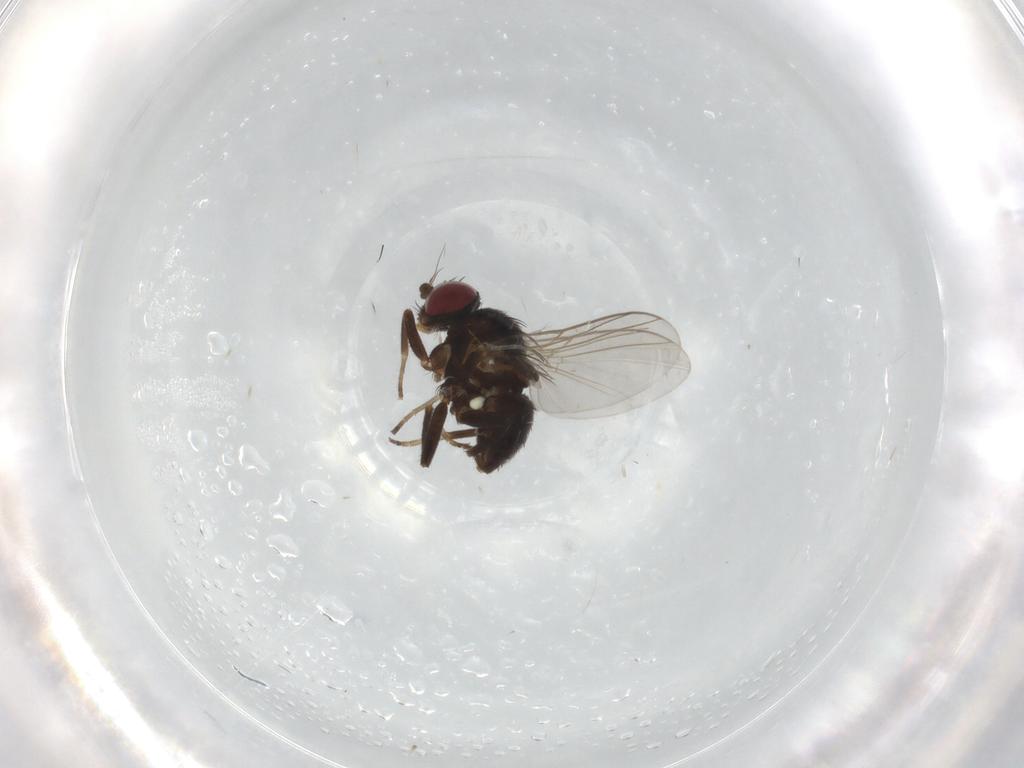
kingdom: Animalia
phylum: Arthropoda
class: Insecta
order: Diptera
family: Agromyzidae
